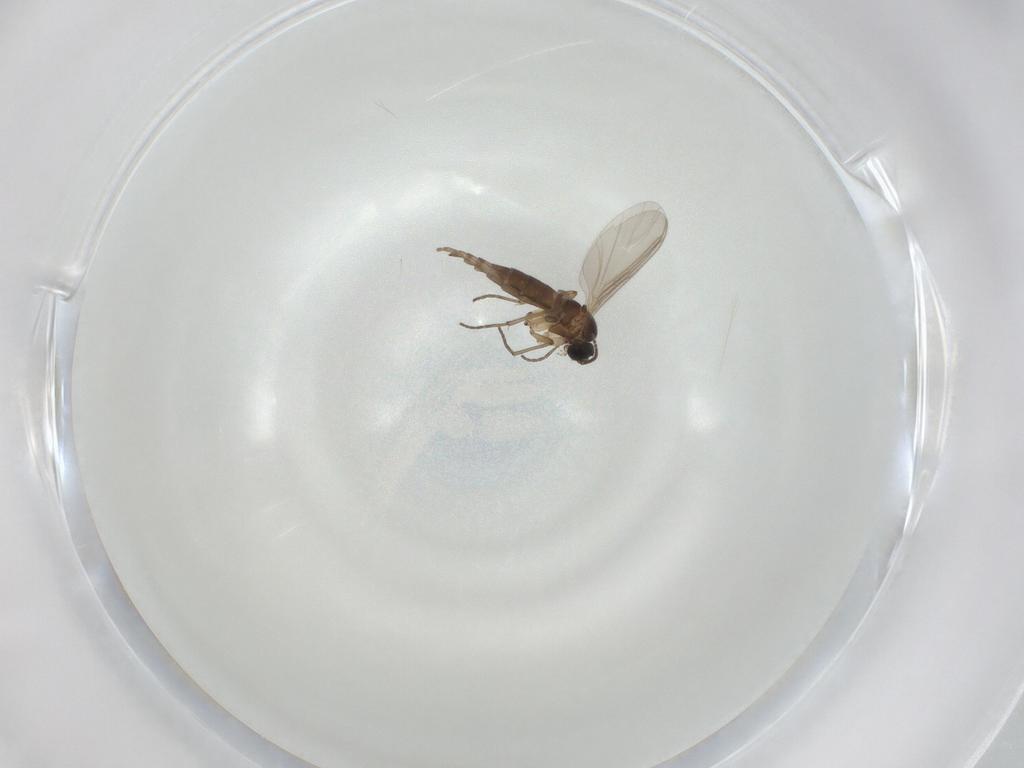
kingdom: Animalia
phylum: Arthropoda
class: Insecta
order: Diptera
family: Sciaridae
